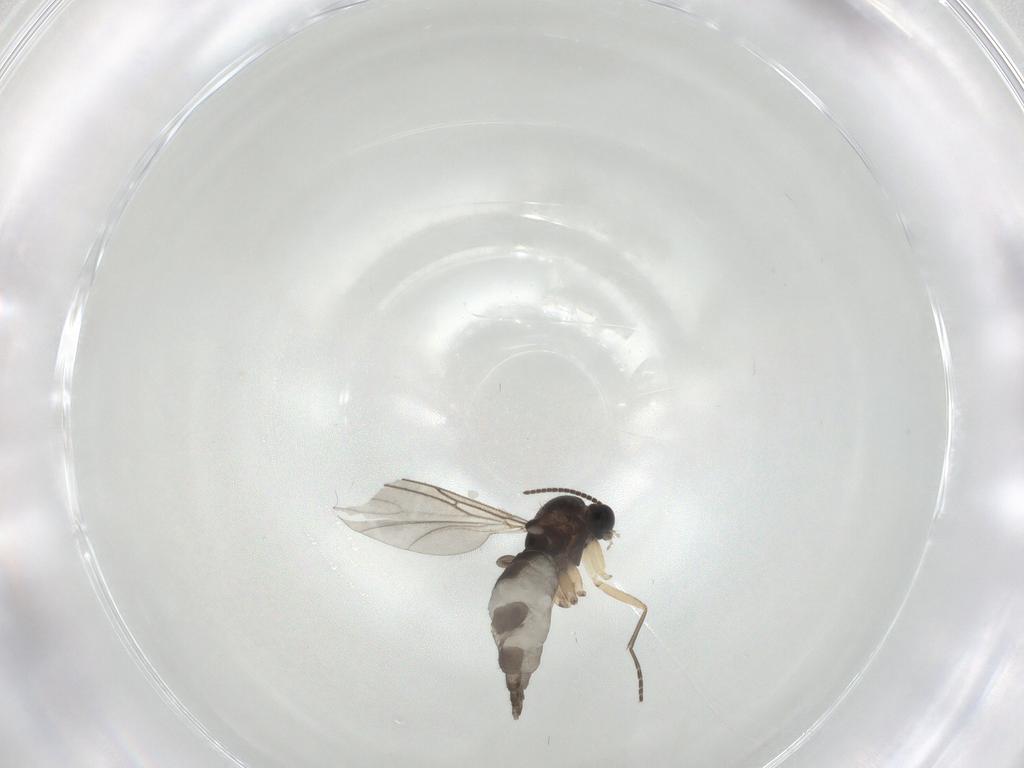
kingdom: Animalia
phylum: Arthropoda
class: Insecta
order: Diptera
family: Sciaridae
